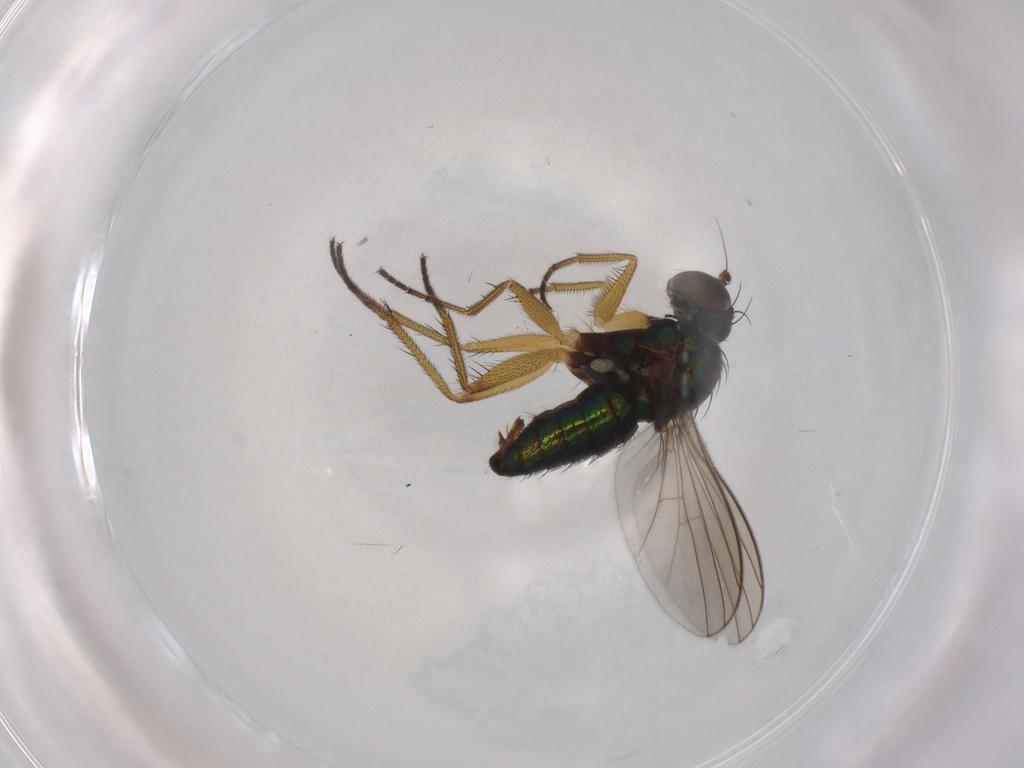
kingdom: Animalia
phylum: Arthropoda
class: Insecta
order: Diptera
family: Dolichopodidae
